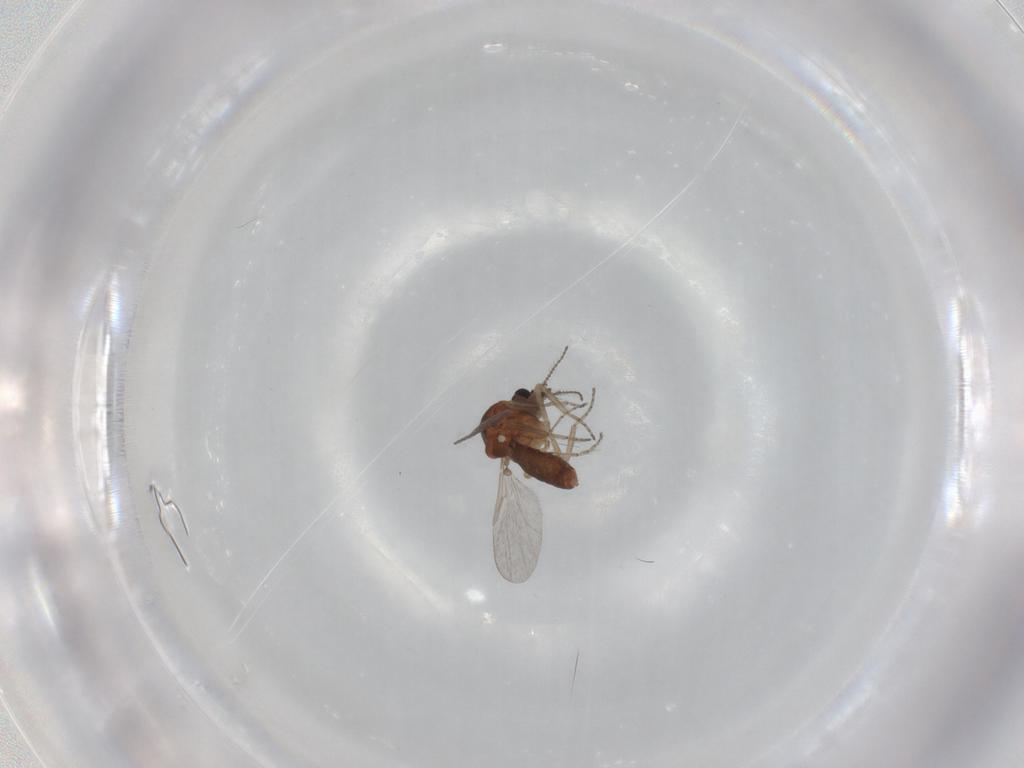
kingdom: Animalia
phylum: Arthropoda
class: Insecta
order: Diptera
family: Ceratopogonidae
